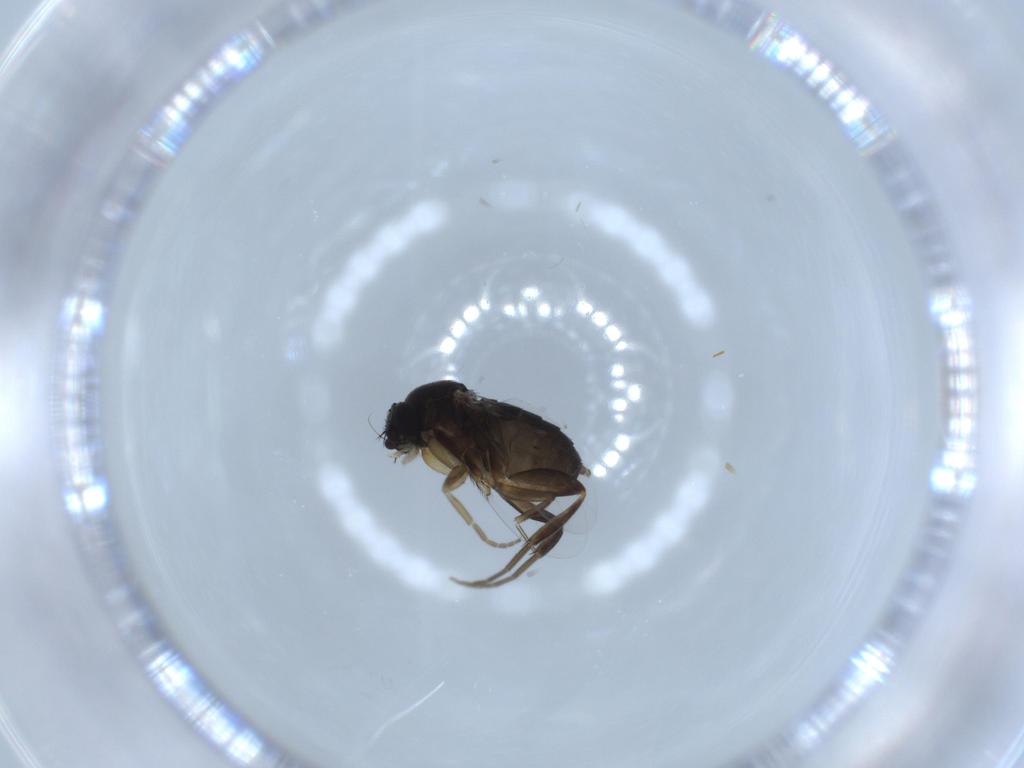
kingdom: Animalia
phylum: Arthropoda
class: Insecta
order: Diptera
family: Phoridae
